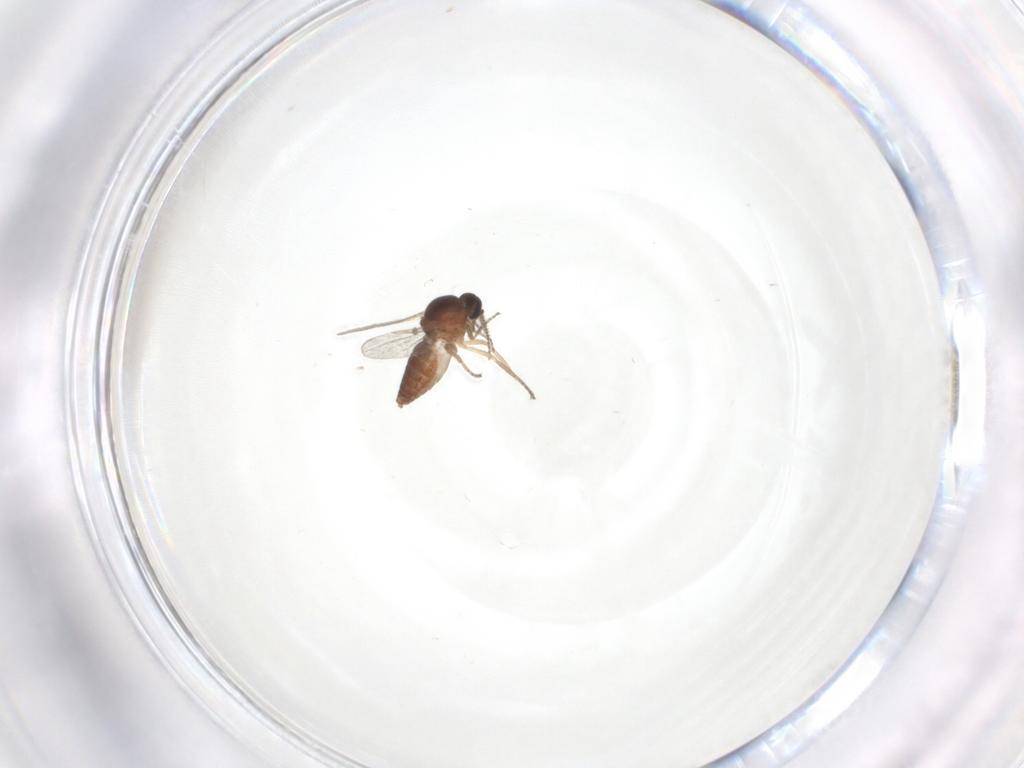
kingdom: Animalia
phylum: Arthropoda
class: Insecta
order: Diptera
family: Ceratopogonidae
